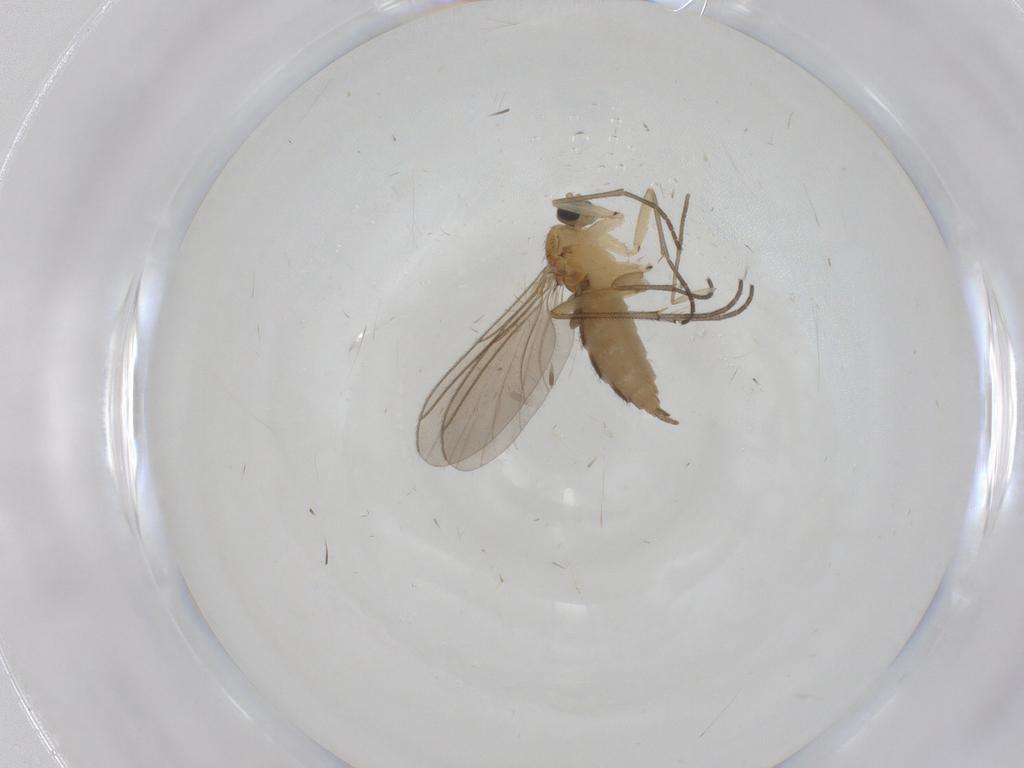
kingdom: Animalia
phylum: Arthropoda
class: Insecta
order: Diptera
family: Sciaridae
